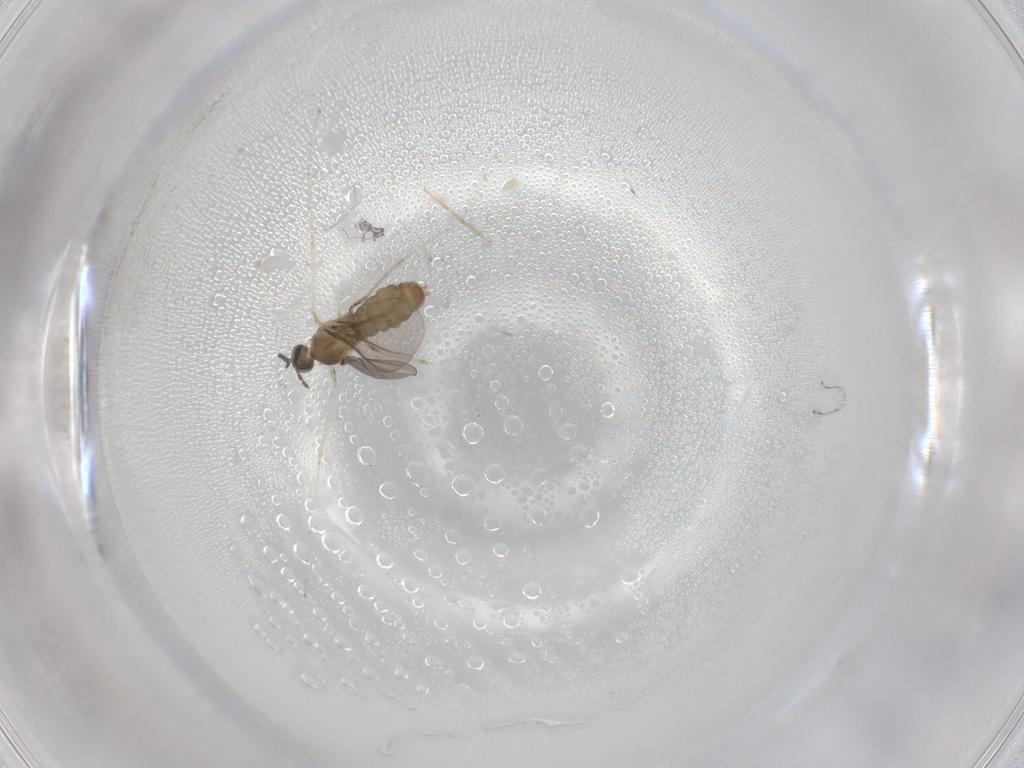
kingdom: Animalia
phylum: Arthropoda
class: Insecta
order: Diptera
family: Cecidomyiidae
